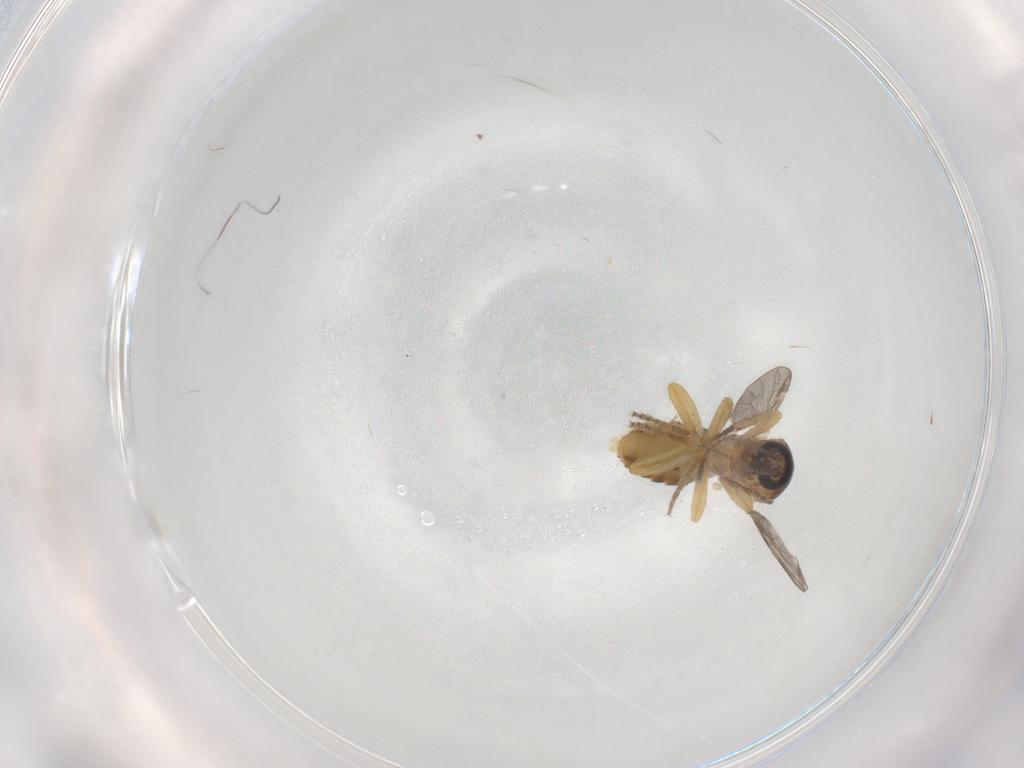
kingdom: Animalia
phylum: Arthropoda
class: Insecta
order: Diptera
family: Ceratopogonidae
